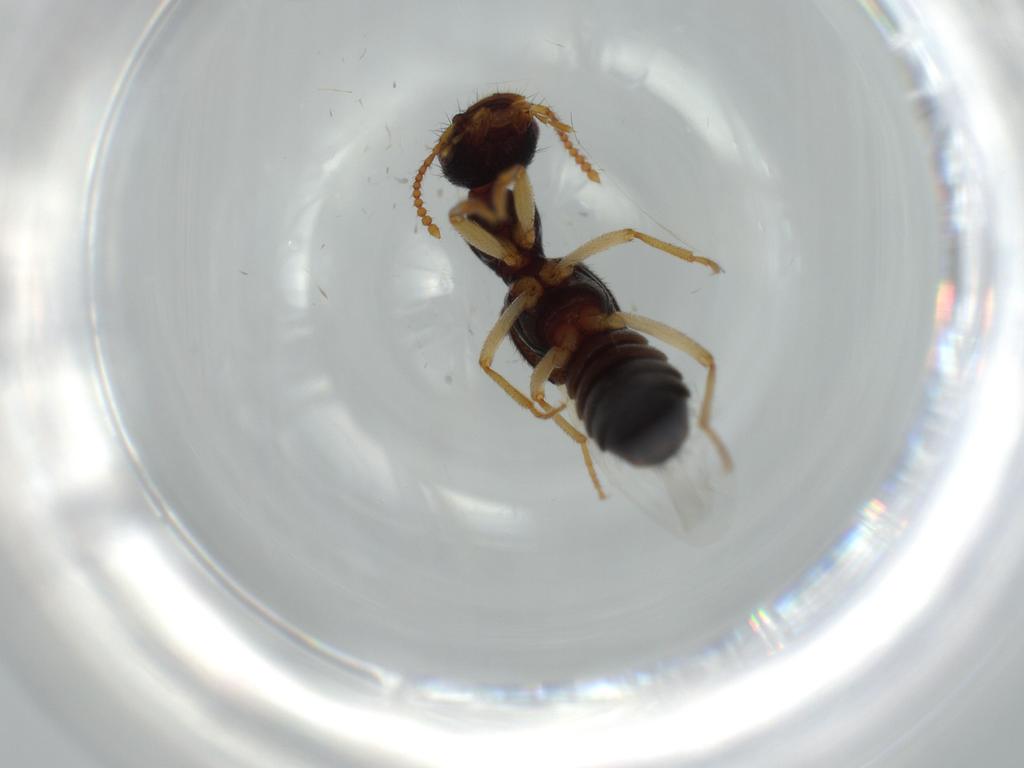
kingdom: Animalia
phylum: Arthropoda
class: Insecta
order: Coleoptera
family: Staphylinidae
